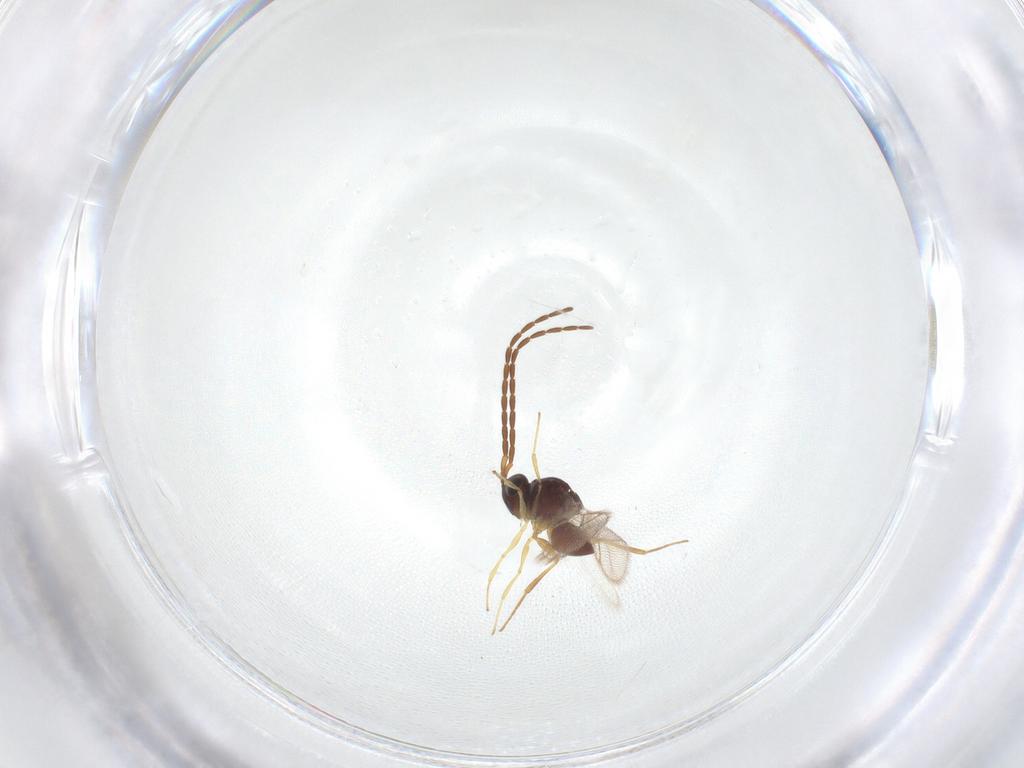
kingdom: Animalia
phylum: Arthropoda
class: Insecta
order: Hymenoptera
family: Figitidae
